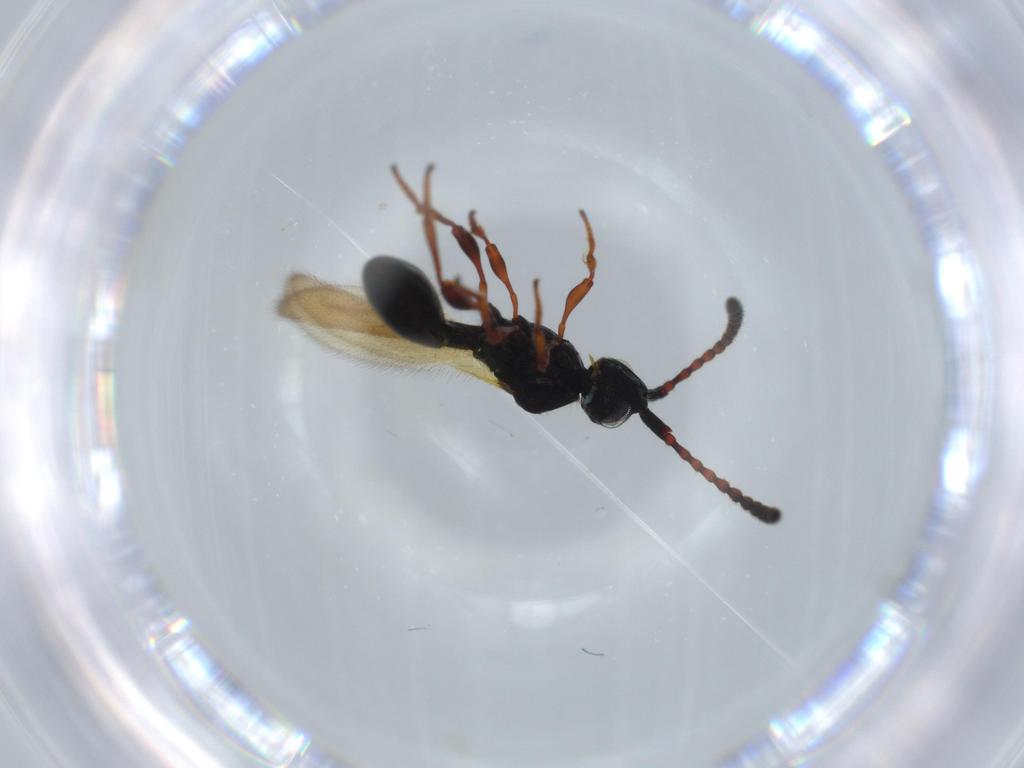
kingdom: Animalia
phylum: Arthropoda
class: Insecta
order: Hymenoptera
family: Diapriidae
